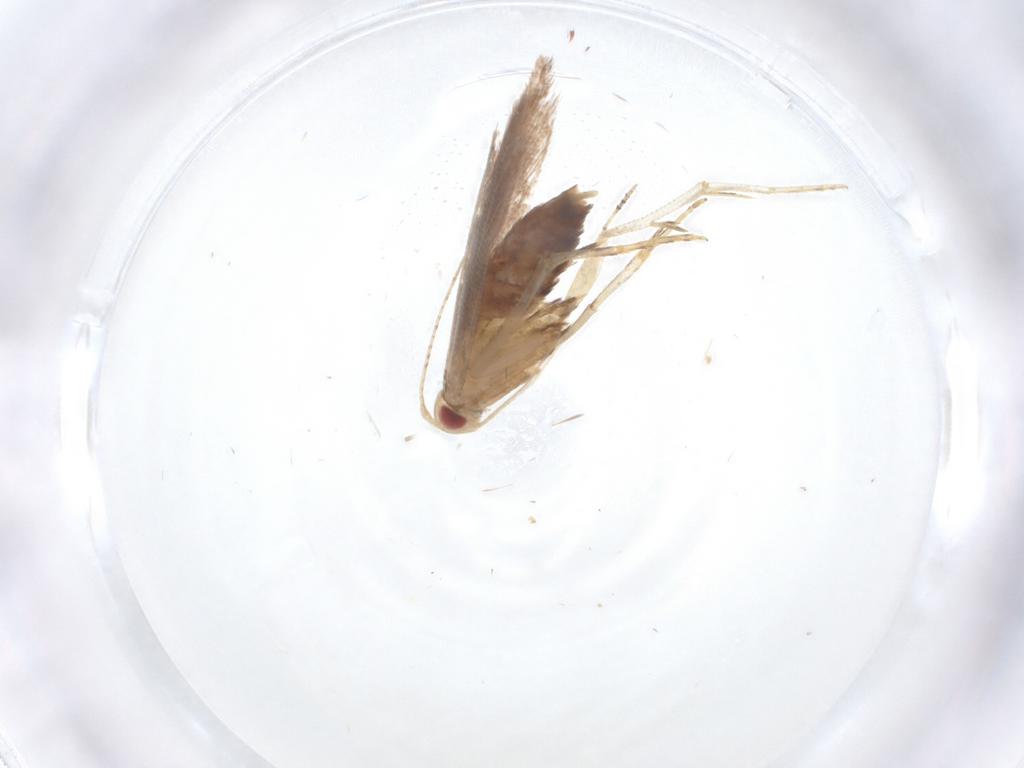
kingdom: Animalia
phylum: Arthropoda
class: Insecta
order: Lepidoptera
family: Cosmopterigidae
